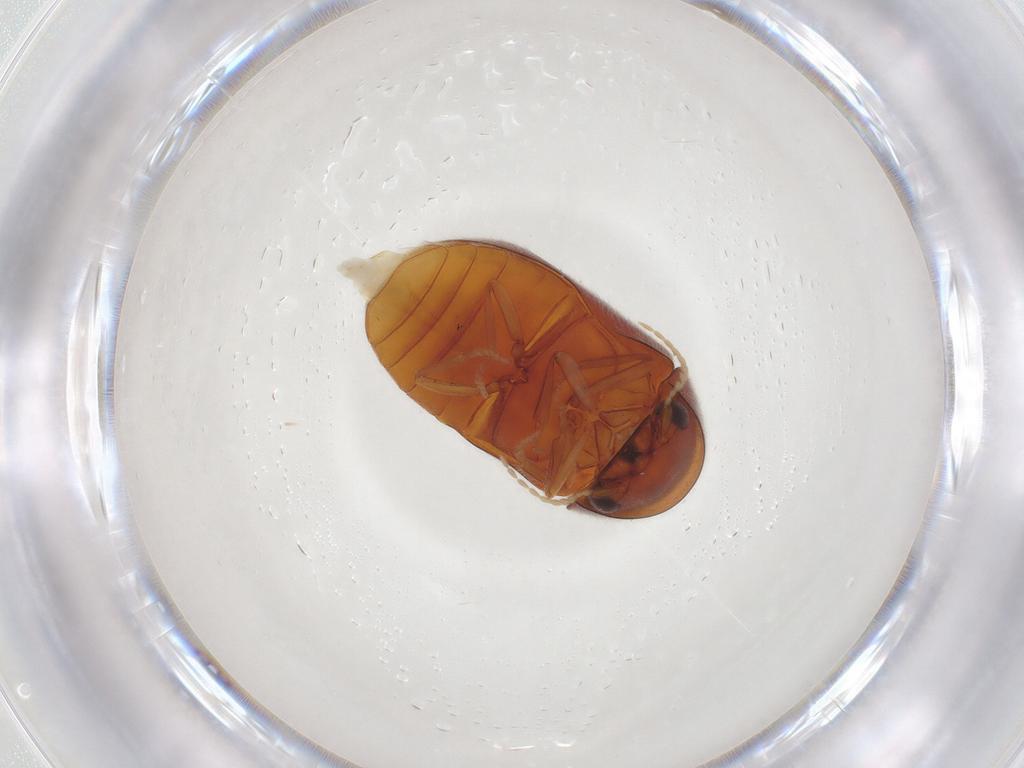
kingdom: Animalia
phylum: Arthropoda
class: Insecta
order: Coleoptera
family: Ptinidae
